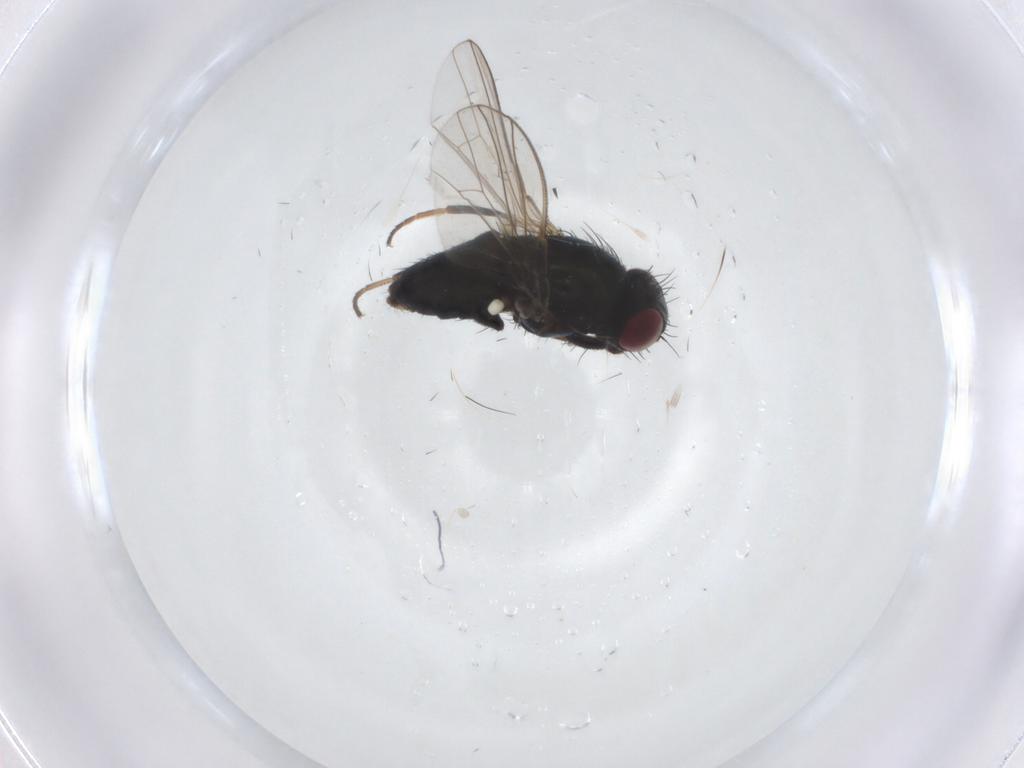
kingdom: Animalia
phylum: Arthropoda
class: Insecta
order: Diptera
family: Carnidae
